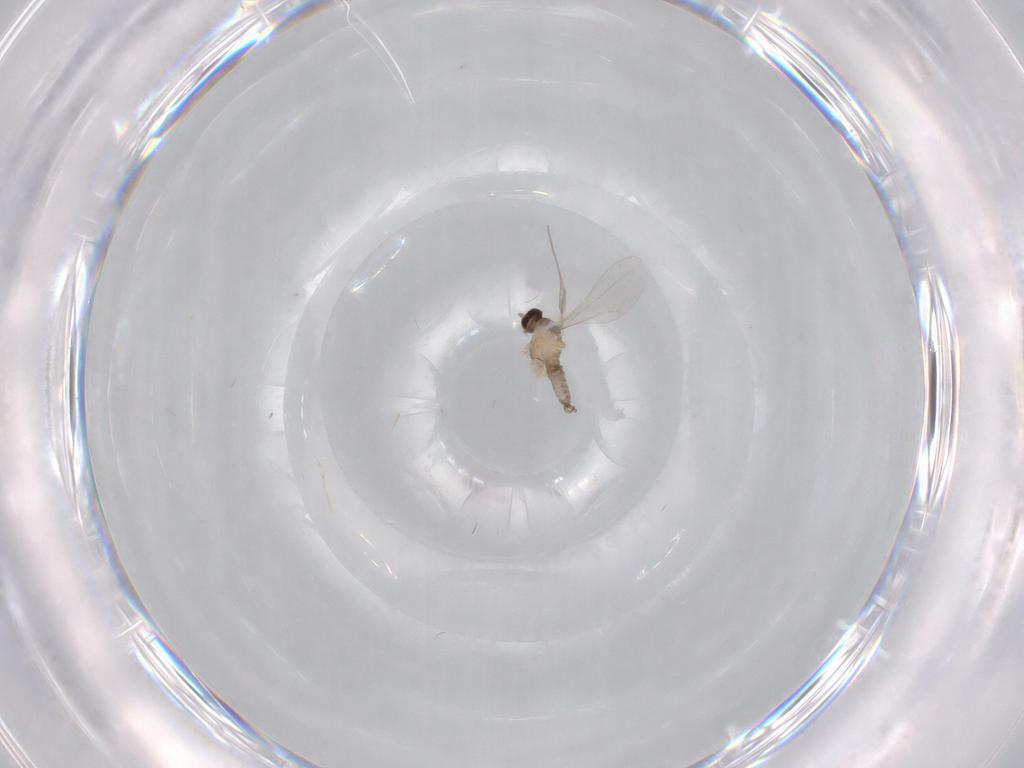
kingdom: Animalia
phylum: Arthropoda
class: Insecta
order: Diptera
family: Cecidomyiidae
